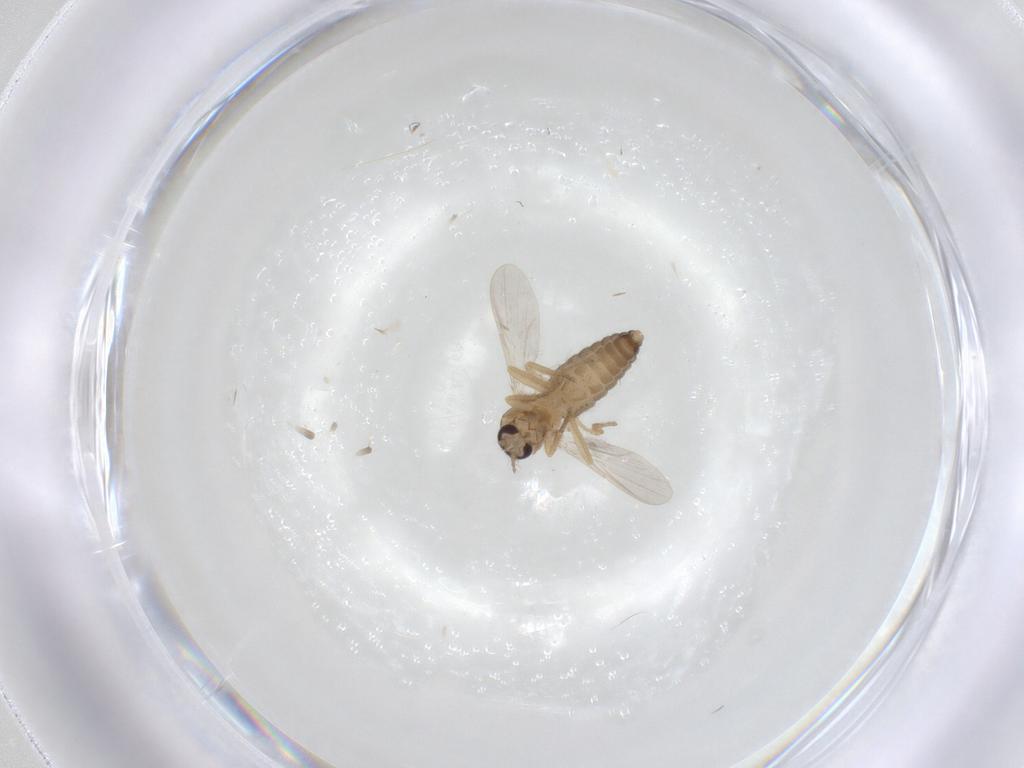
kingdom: Animalia
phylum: Arthropoda
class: Insecta
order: Diptera
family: Ceratopogonidae
